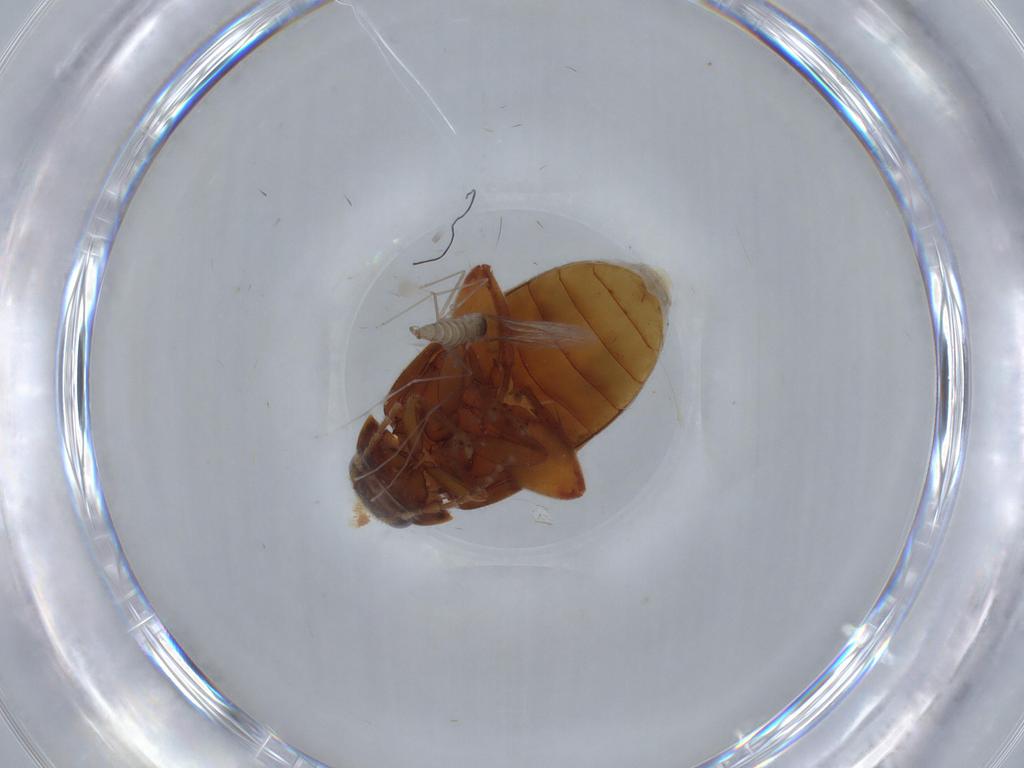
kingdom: Animalia
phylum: Arthropoda
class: Insecta
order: Coleoptera
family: Scirtidae
